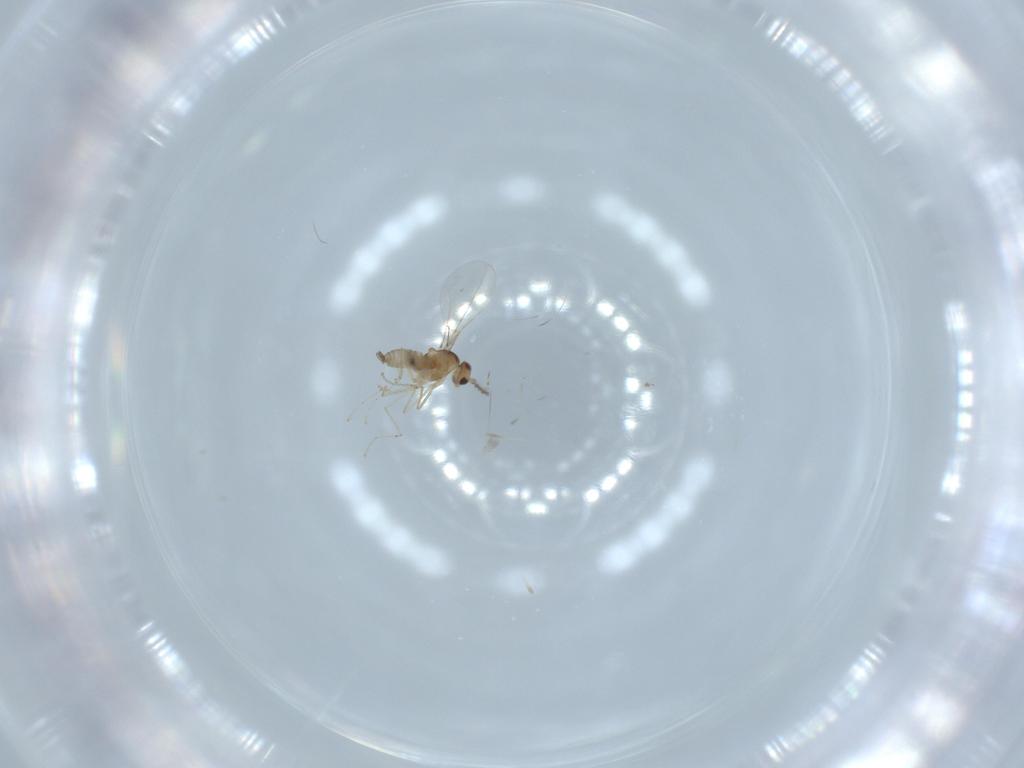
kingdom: Animalia
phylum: Arthropoda
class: Insecta
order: Diptera
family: Cecidomyiidae
